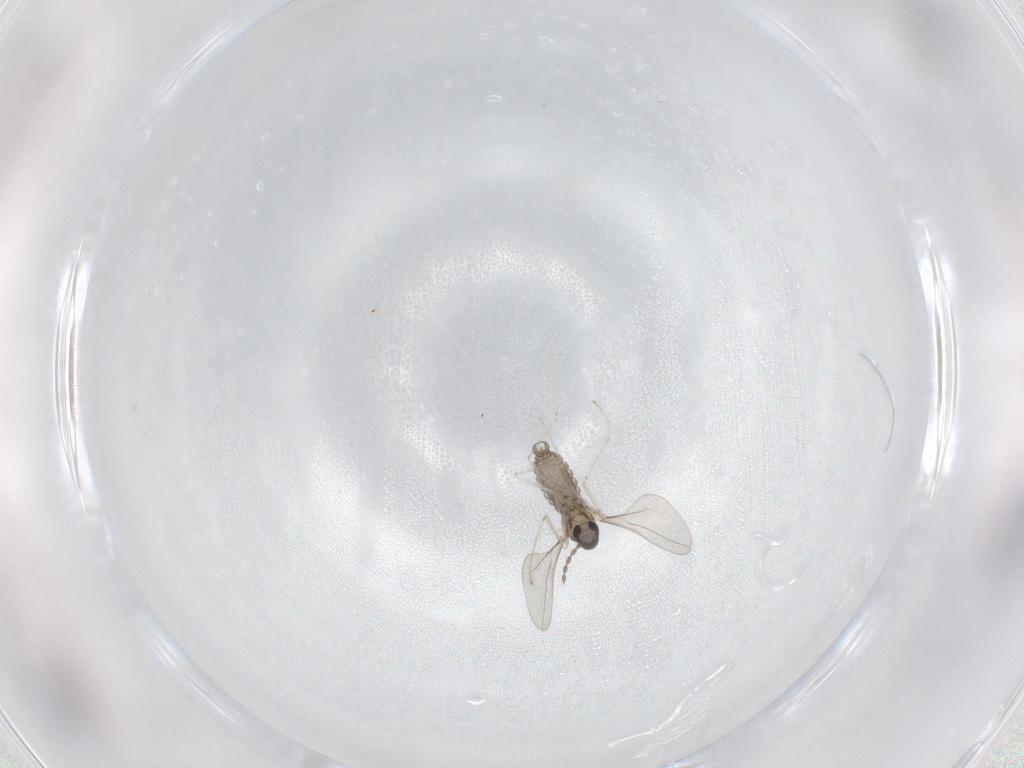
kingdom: Animalia
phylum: Arthropoda
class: Insecta
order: Diptera
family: Cecidomyiidae
